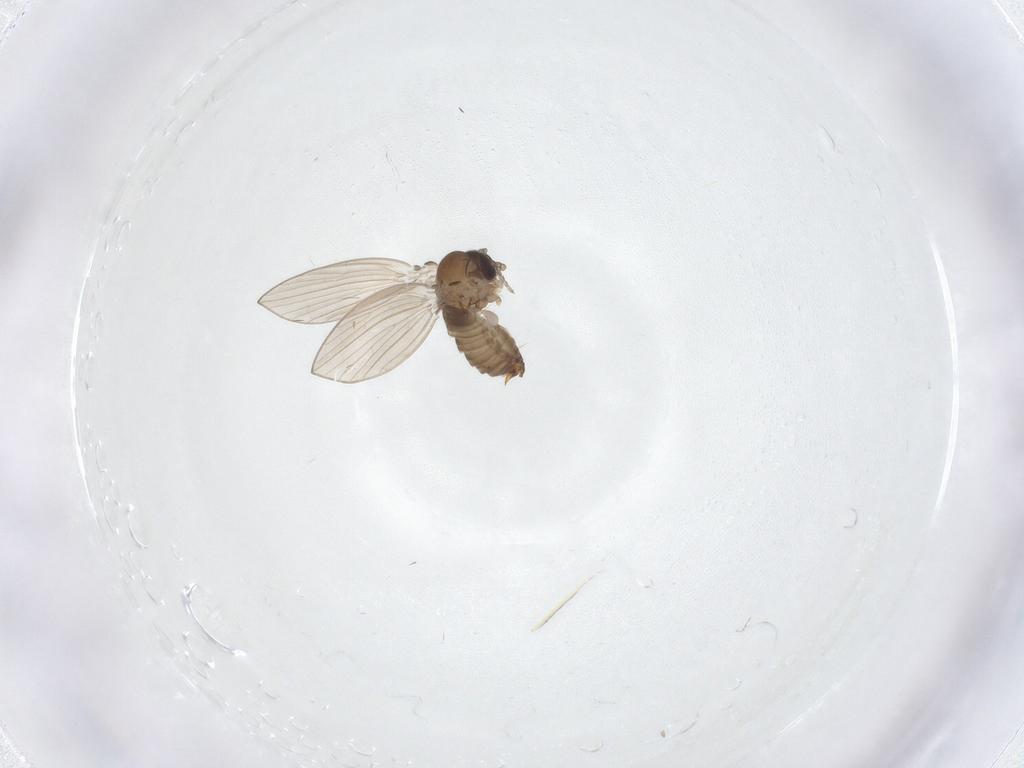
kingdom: Animalia
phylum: Arthropoda
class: Insecta
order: Diptera
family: Psychodidae
